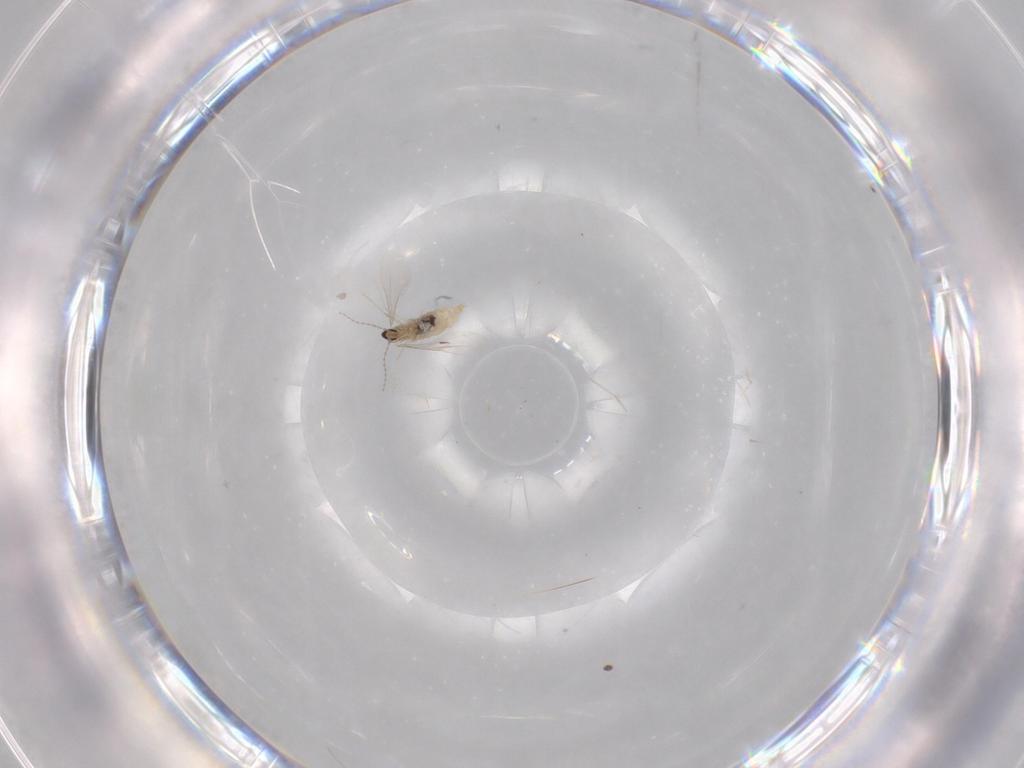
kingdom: Animalia
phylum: Arthropoda
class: Insecta
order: Diptera
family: Cecidomyiidae
